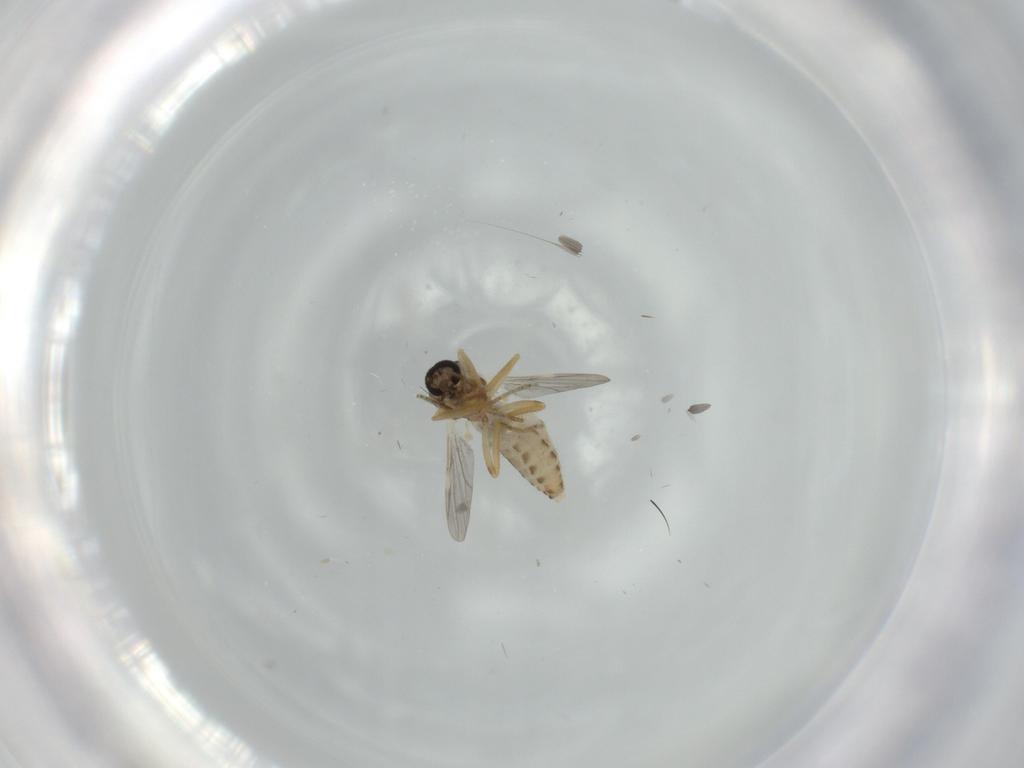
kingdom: Animalia
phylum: Arthropoda
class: Insecta
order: Diptera
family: Ceratopogonidae
